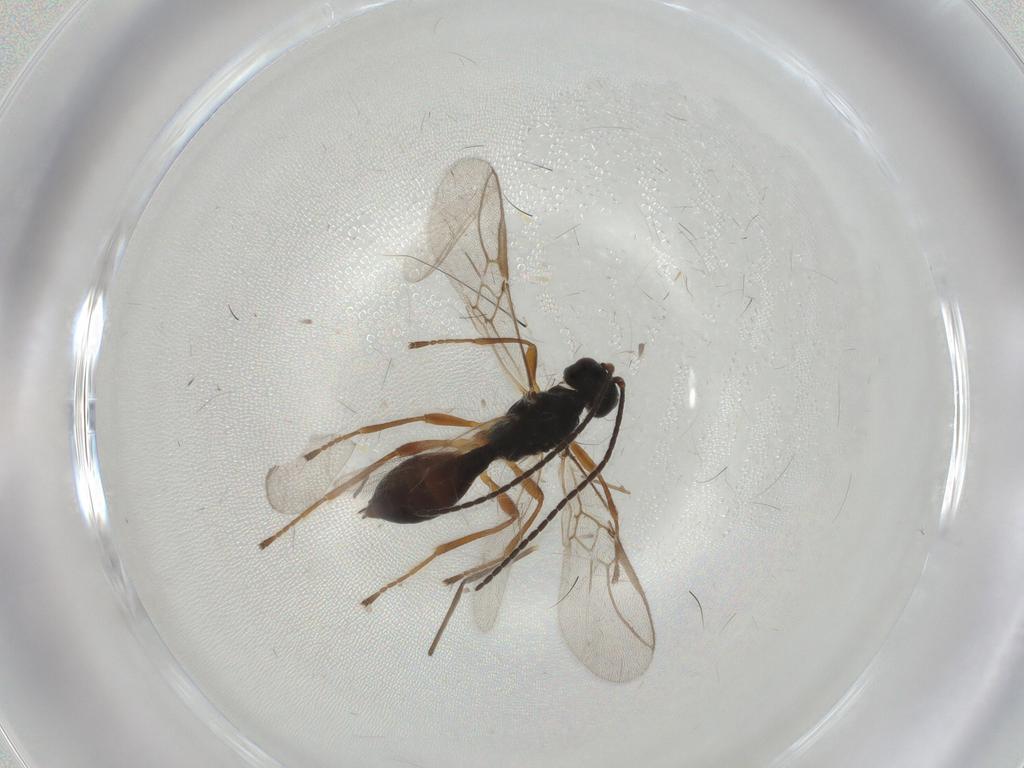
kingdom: Animalia
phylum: Arthropoda
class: Insecta
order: Hymenoptera
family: Braconidae
